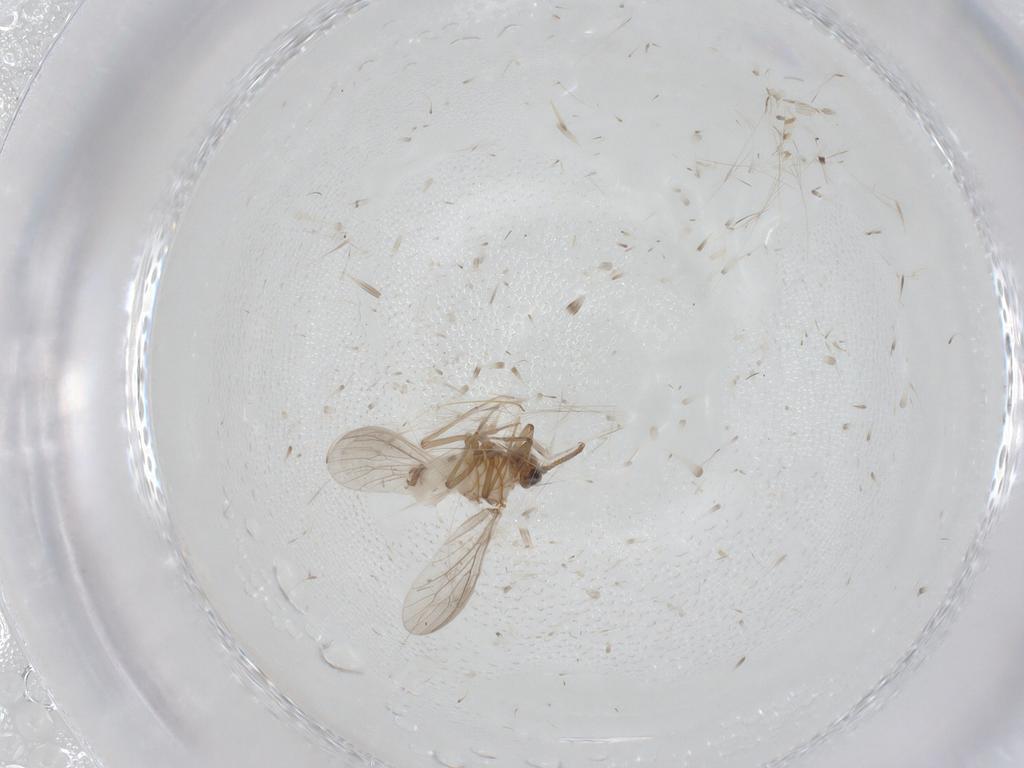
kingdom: Animalia
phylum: Arthropoda
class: Insecta
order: Neuroptera
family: Coniopterygidae
